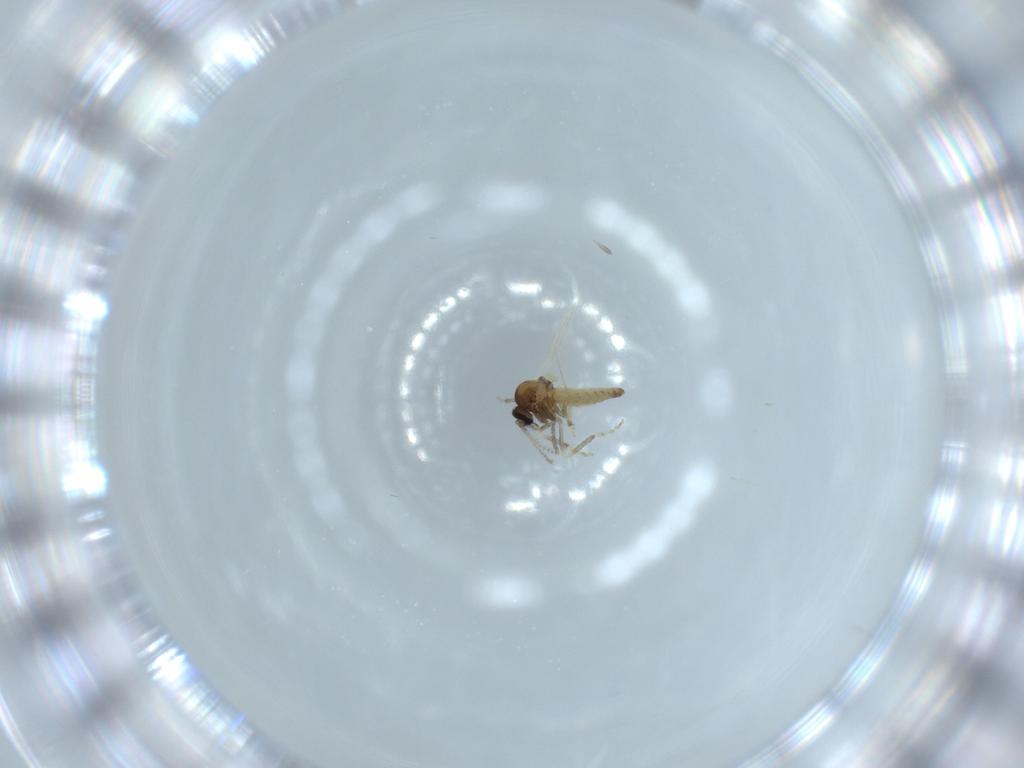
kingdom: Animalia
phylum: Arthropoda
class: Insecta
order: Diptera
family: Ceratopogonidae
